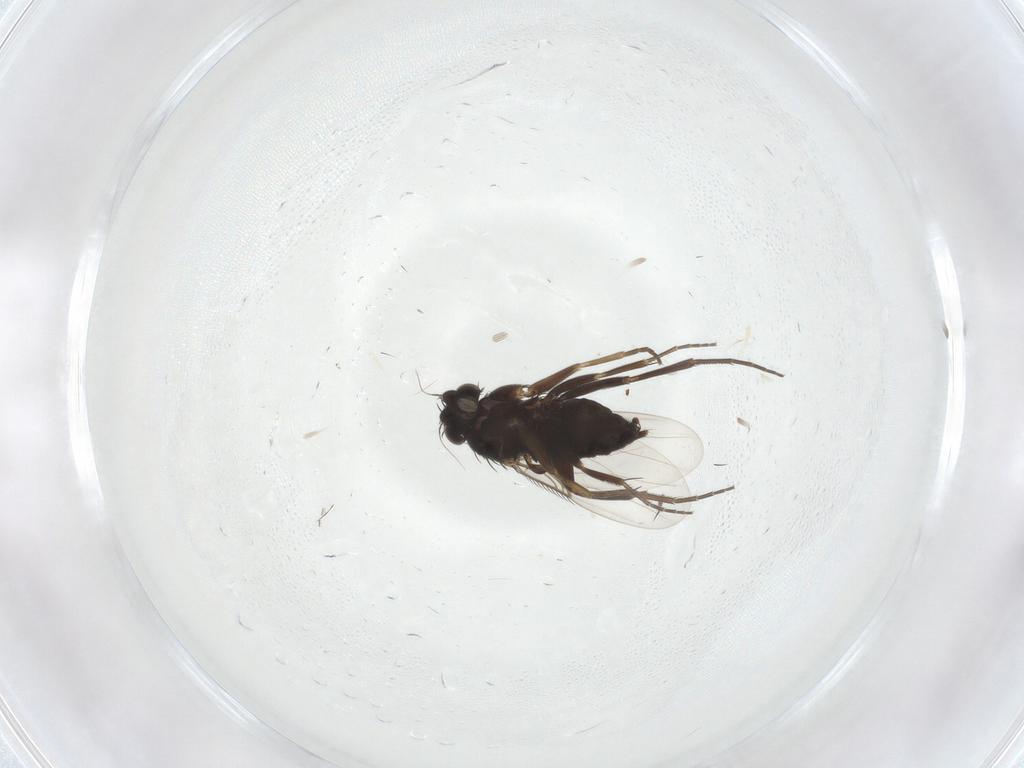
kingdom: Animalia
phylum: Arthropoda
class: Insecta
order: Diptera
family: Phoridae
